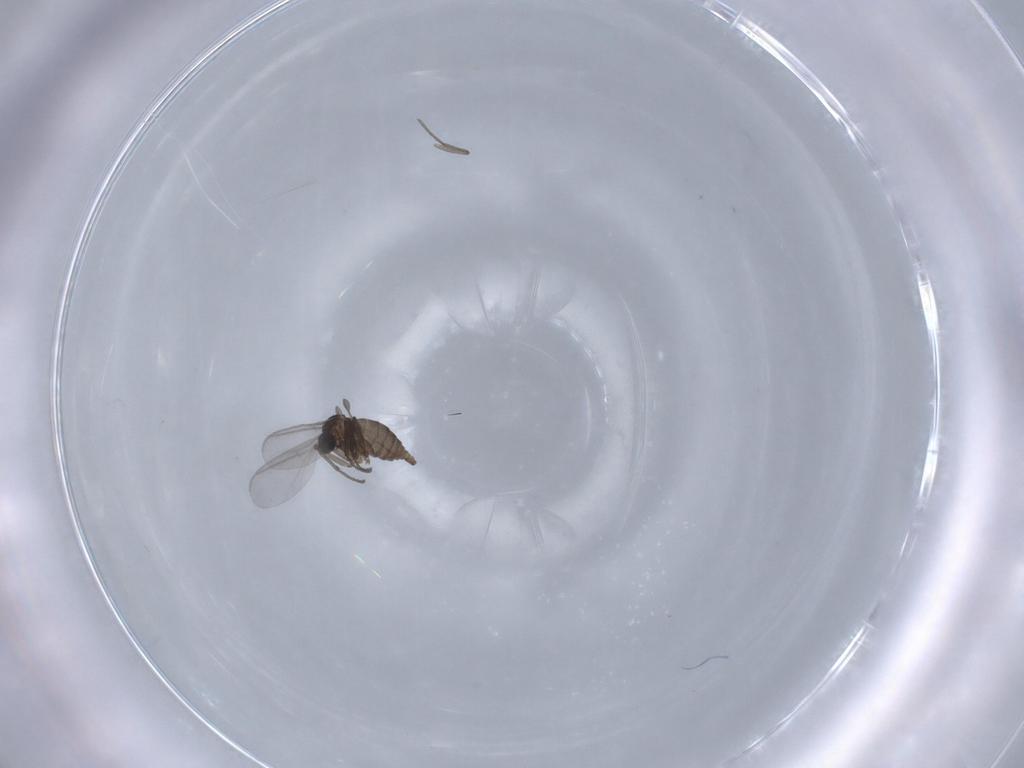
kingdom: Animalia
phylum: Arthropoda
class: Insecta
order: Diptera
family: Sciaridae
